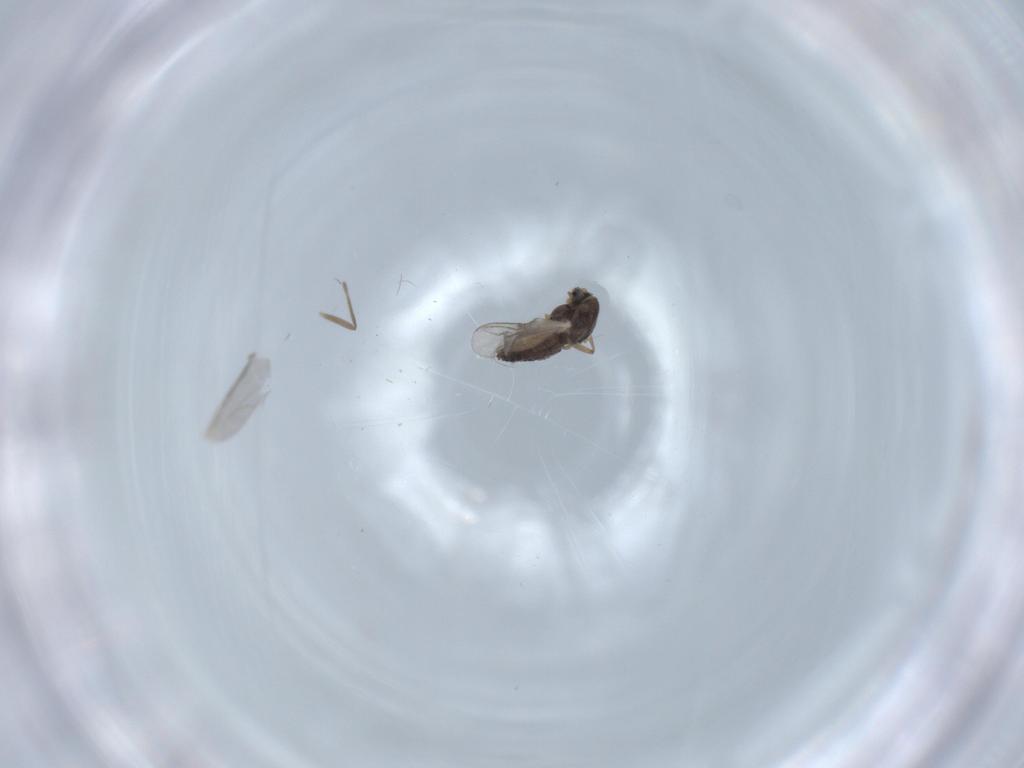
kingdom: Animalia
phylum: Arthropoda
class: Insecta
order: Diptera
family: Chironomidae
